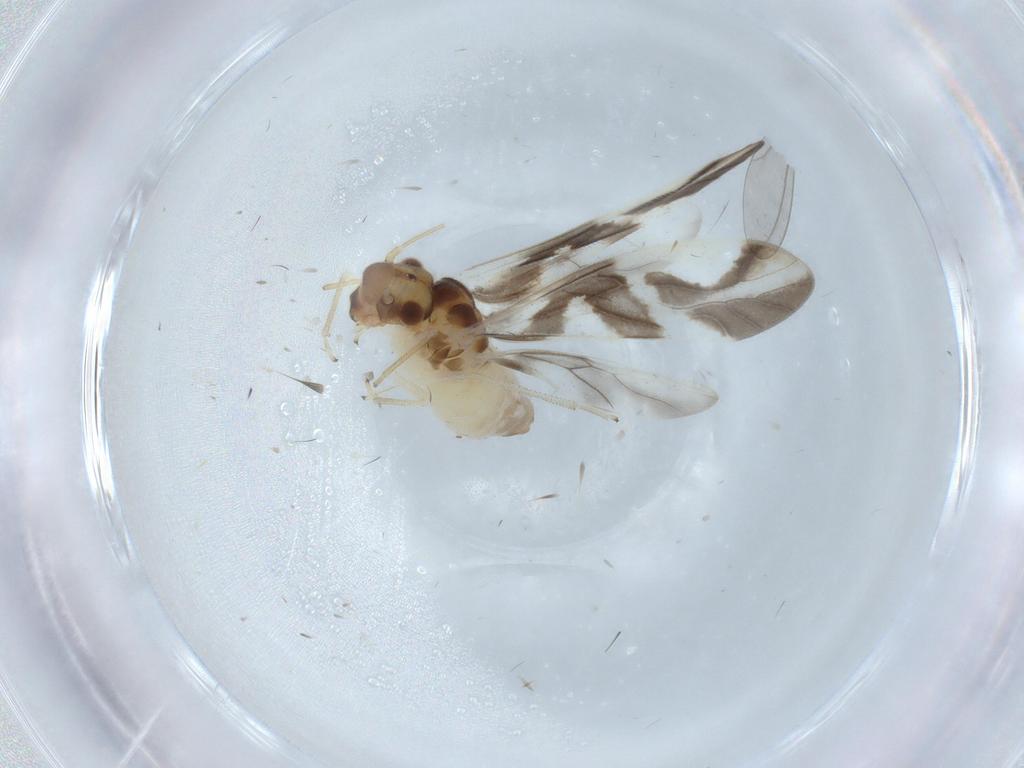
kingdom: Animalia
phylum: Arthropoda
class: Insecta
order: Psocodea
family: Caeciliusidae
